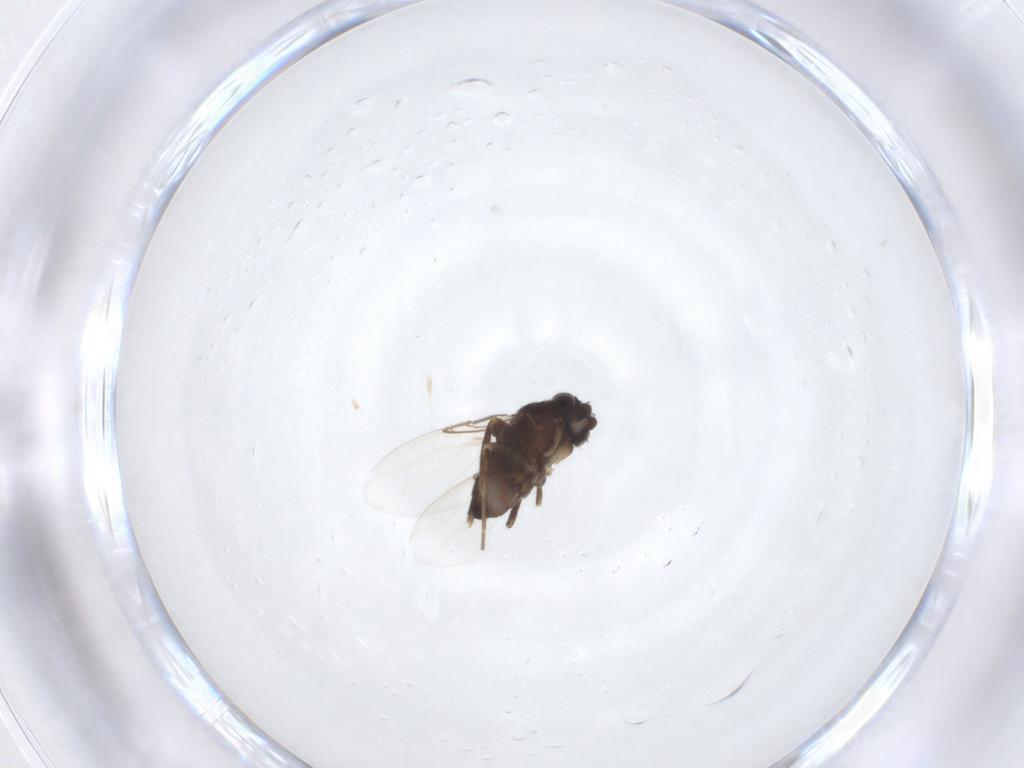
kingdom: Animalia
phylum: Arthropoda
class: Insecta
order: Diptera
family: Phoridae
